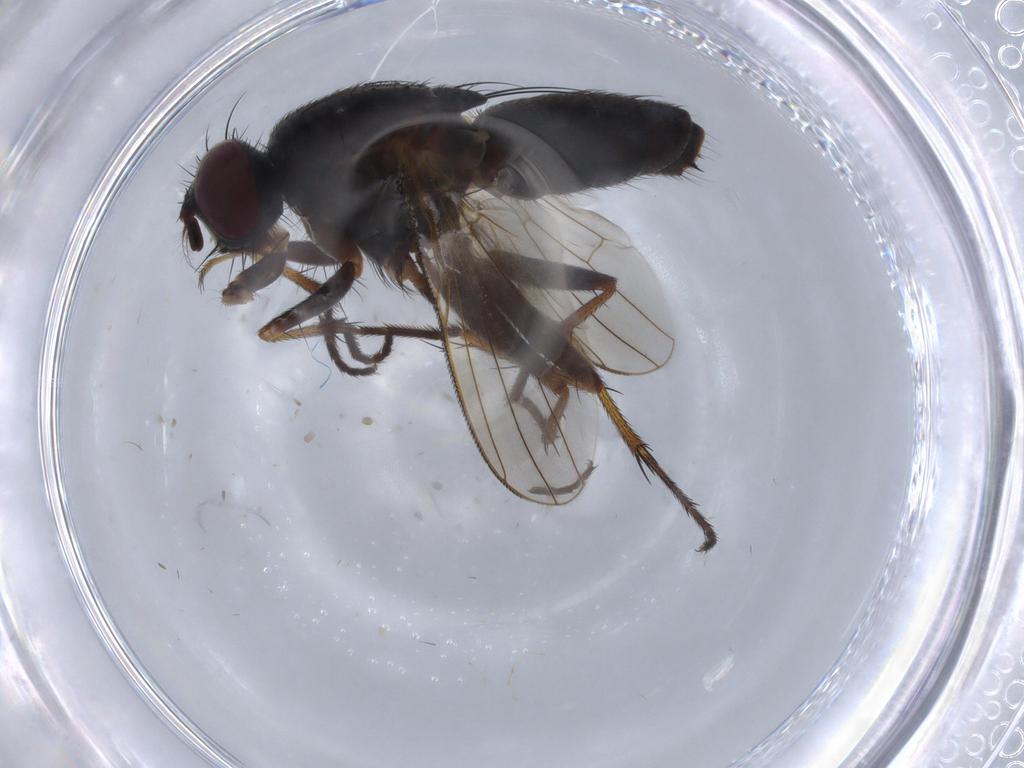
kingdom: Animalia
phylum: Arthropoda
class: Insecta
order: Diptera
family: Muscidae
